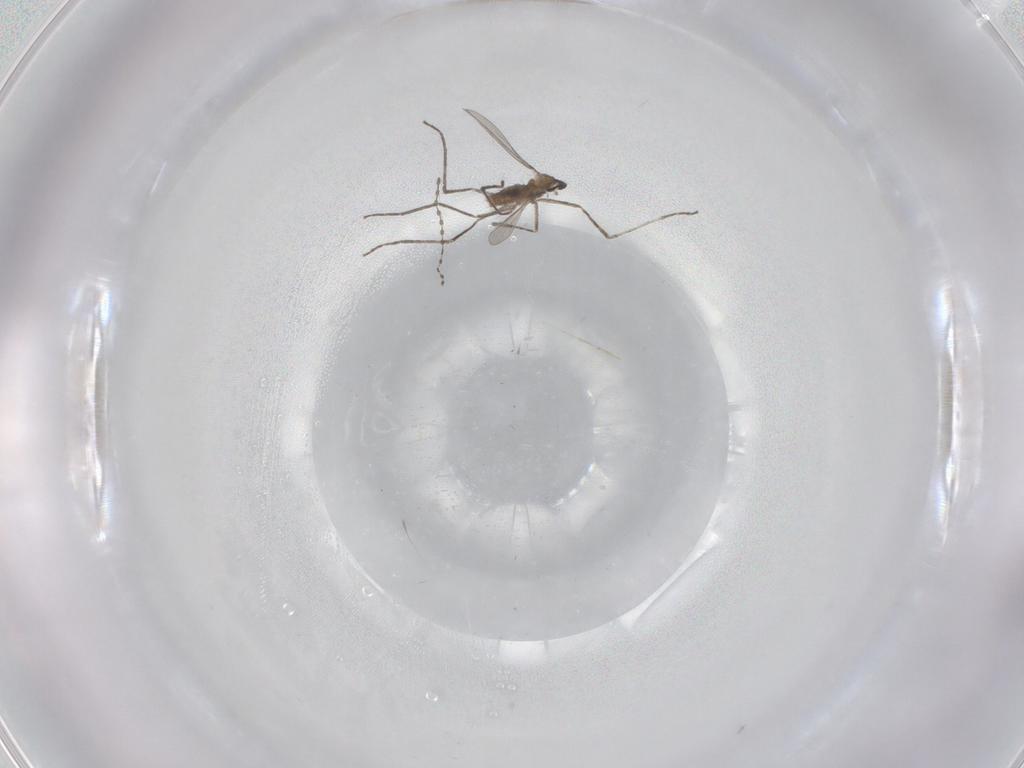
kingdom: Animalia
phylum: Arthropoda
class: Insecta
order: Diptera
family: Cecidomyiidae
